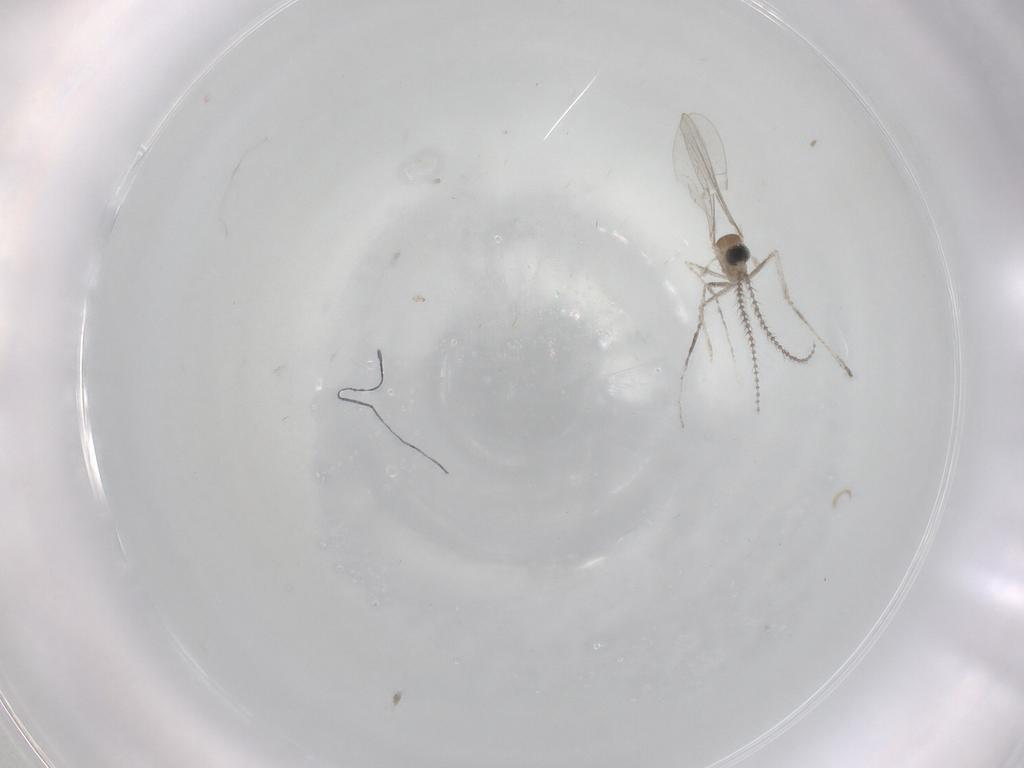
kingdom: Animalia
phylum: Arthropoda
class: Insecta
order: Diptera
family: Cecidomyiidae
